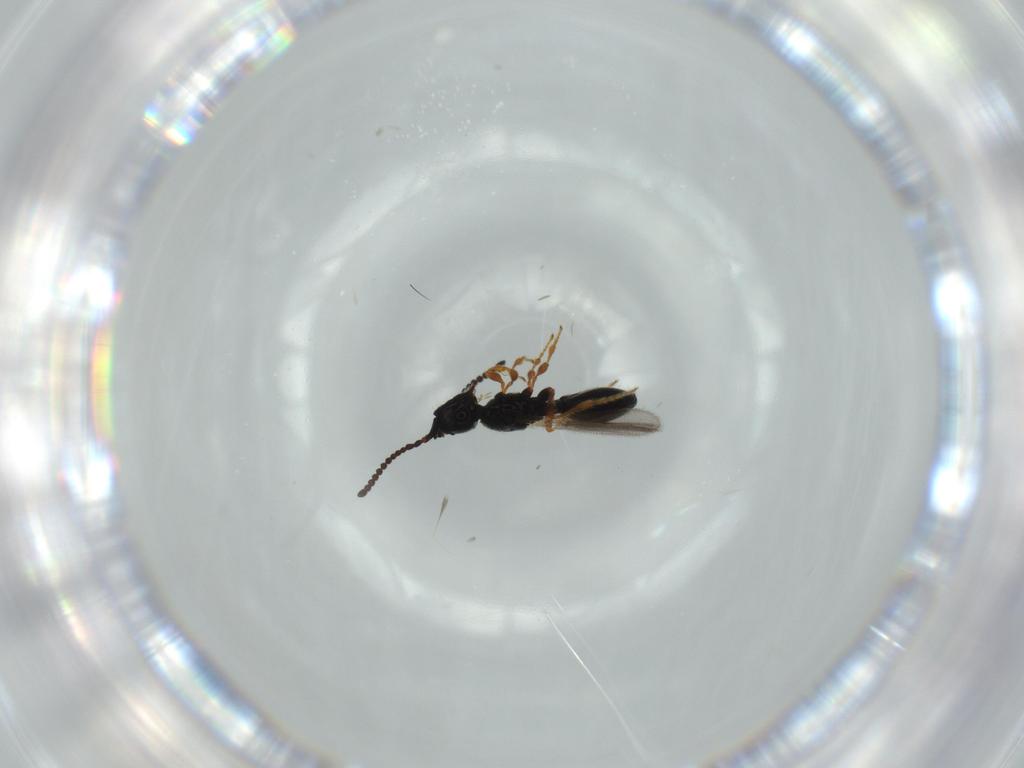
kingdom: Animalia
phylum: Arthropoda
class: Insecta
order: Hymenoptera
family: Diapriidae
